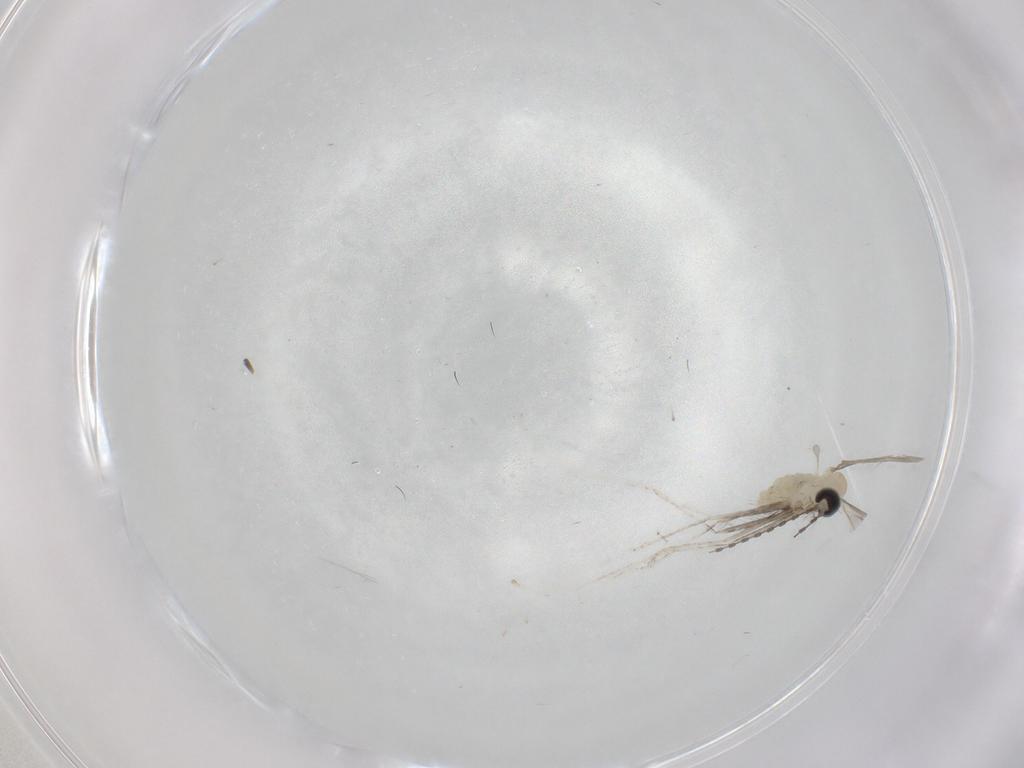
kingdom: Animalia
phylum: Arthropoda
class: Insecta
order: Diptera
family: Cecidomyiidae
